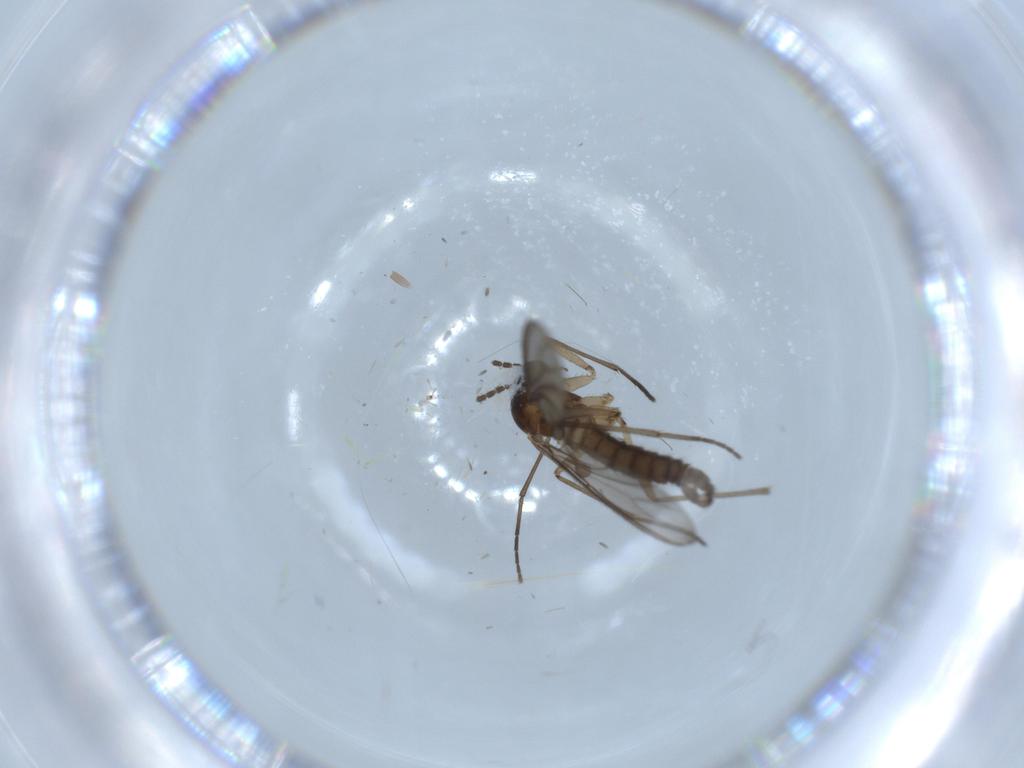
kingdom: Animalia
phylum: Arthropoda
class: Insecta
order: Diptera
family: Sciaridae
